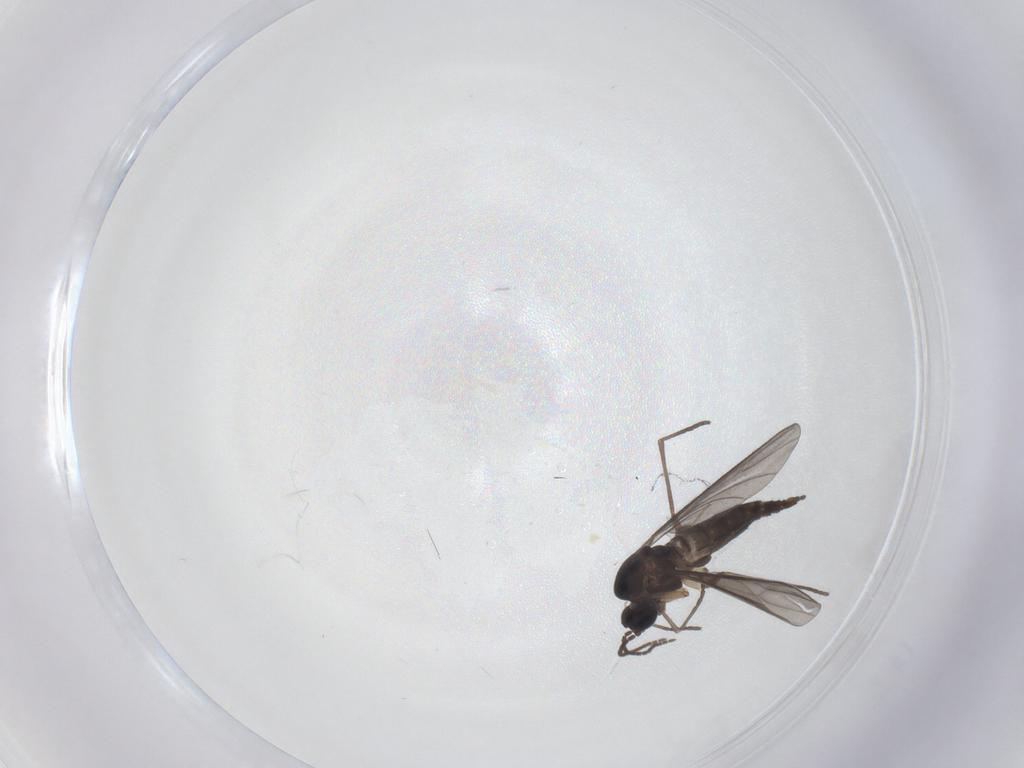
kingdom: Animalia
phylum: Arthropoda
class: Insecta
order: Diptera
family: Sciaridae
